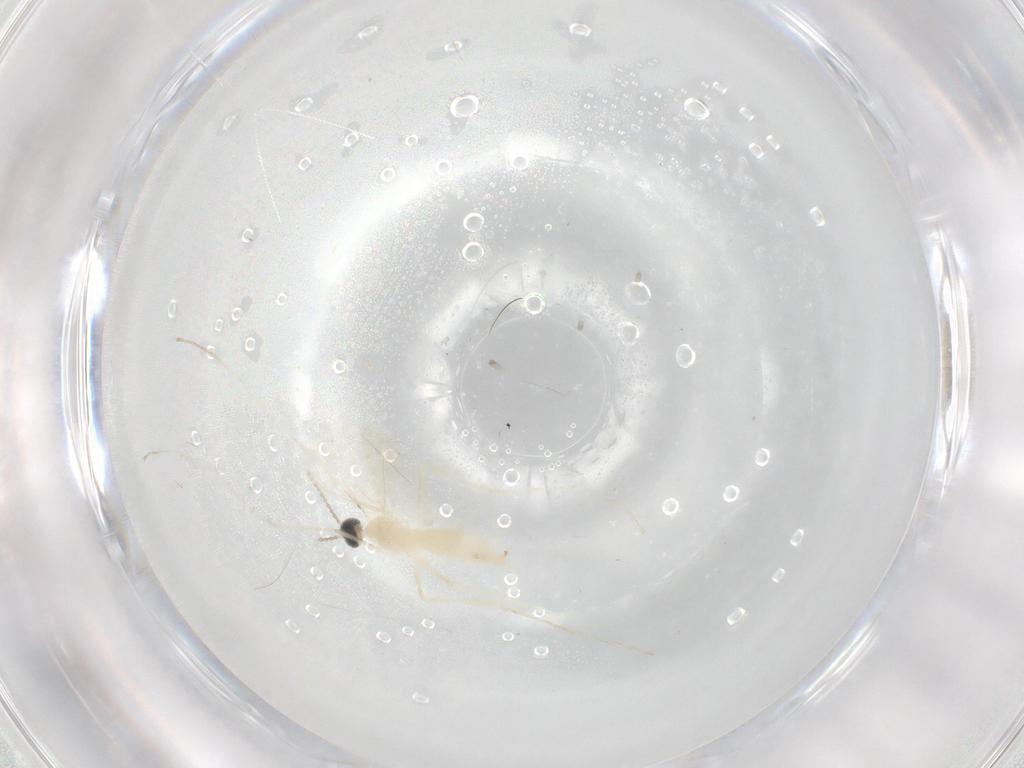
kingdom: Animalia
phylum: Arthropoda
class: Insecta
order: Diptera
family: Cecidomyiidae
